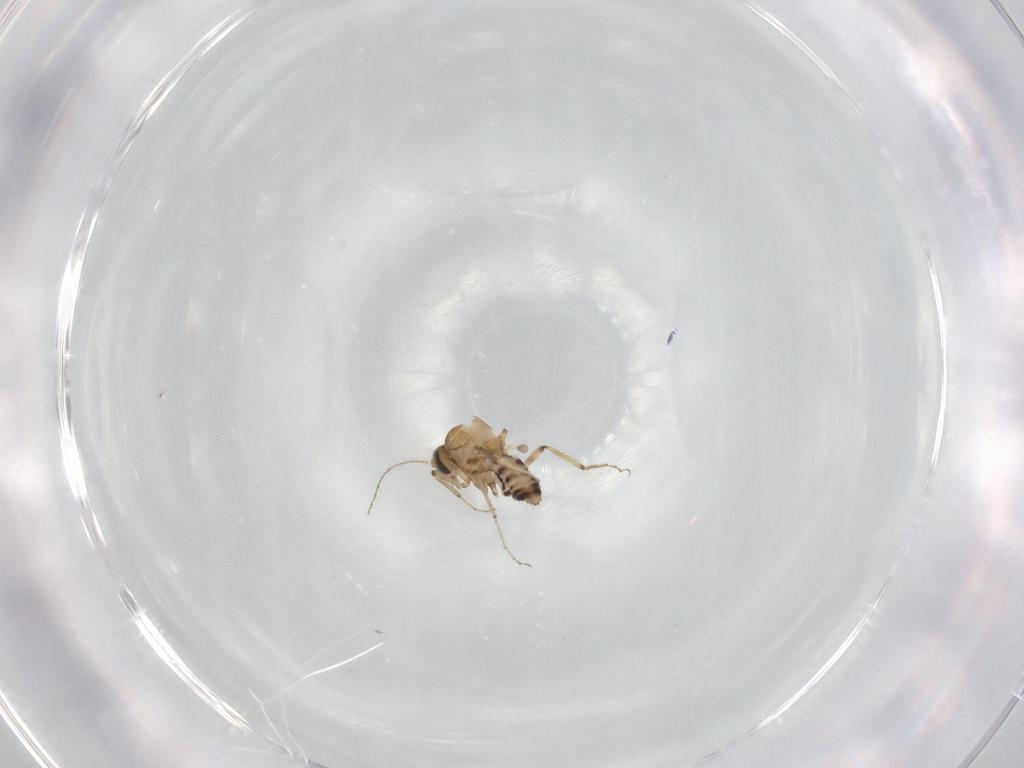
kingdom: Animalia
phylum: Arthropoda
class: Insecta
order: Diptera
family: Ceratopogonidae
